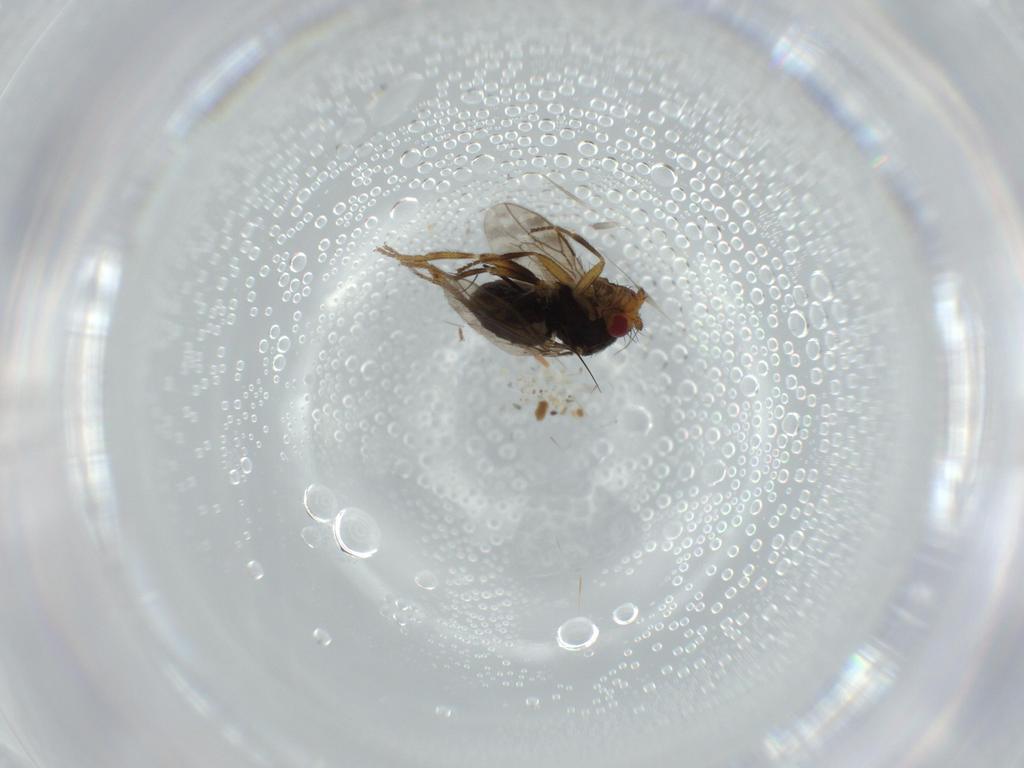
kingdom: Animalia
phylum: Arthropoda
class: Insecta
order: Diptera
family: Sphaeroceridae
